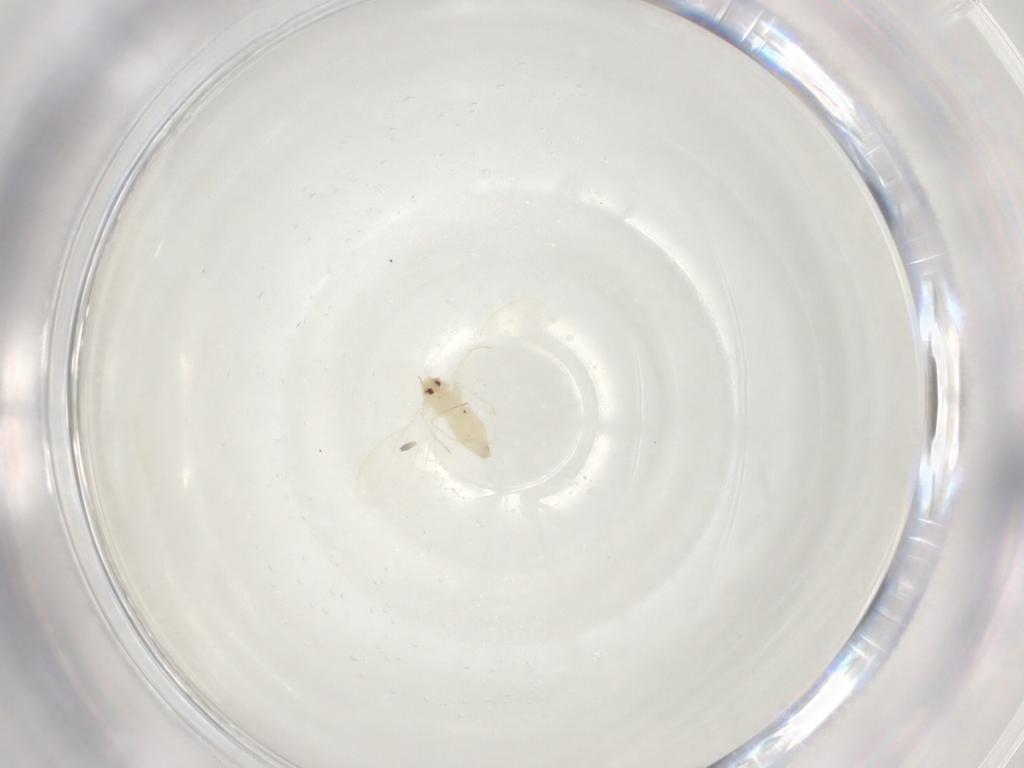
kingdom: Animalia
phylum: Arthropoda
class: Insecta
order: Hemiptera
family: Aleyrodidae
